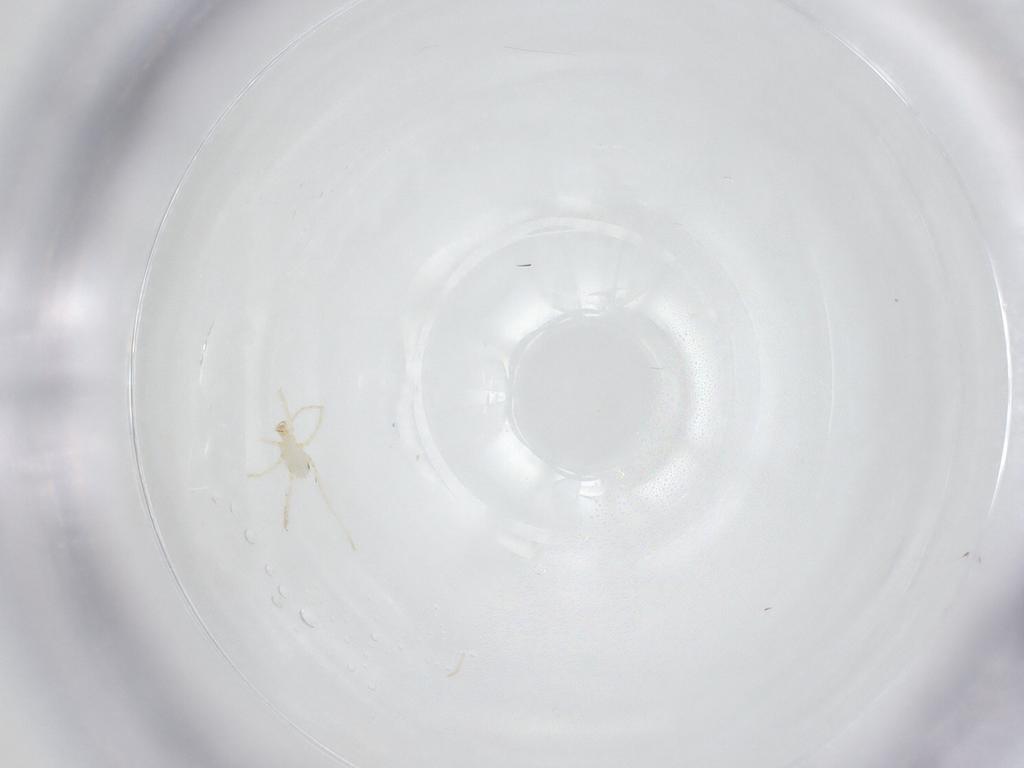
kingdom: Animalia
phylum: Arthropoda
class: Arachnida
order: Trombidiformes
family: Erythraeidae
